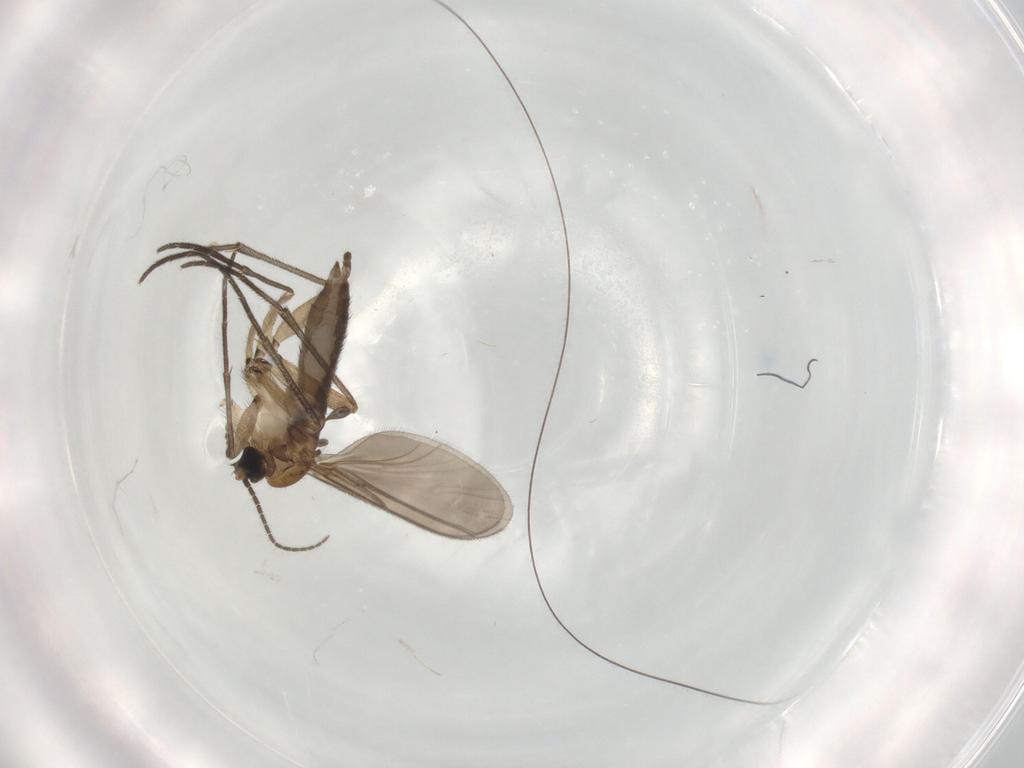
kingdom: Animalia
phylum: Arthropoda
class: Insecta
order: Diptera
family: Sciaridae
